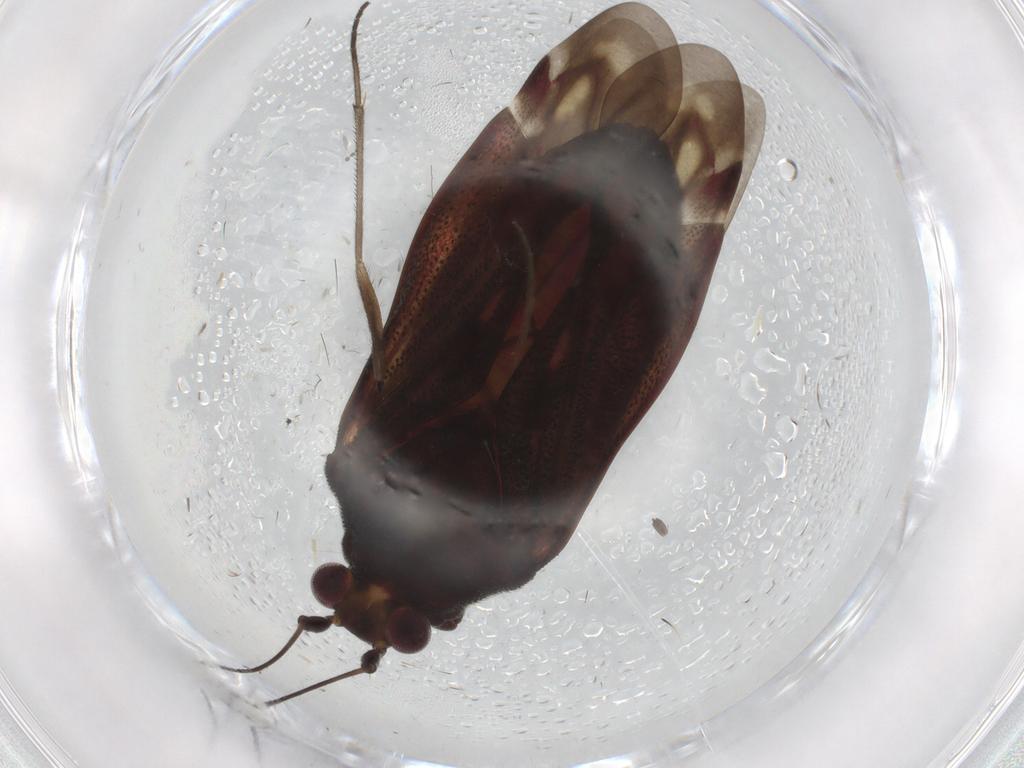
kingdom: Animalia
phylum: Arthropoda
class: Insecta
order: Hemiptera
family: Miridae
